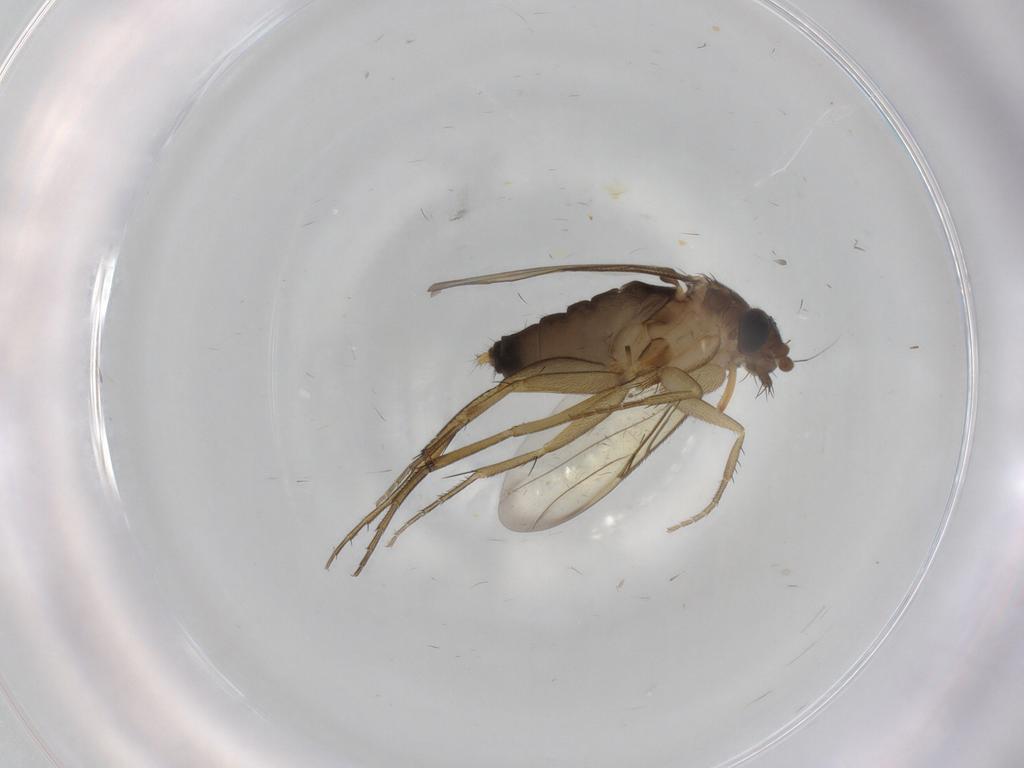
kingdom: Animalia
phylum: Arthropoda
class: Insecta
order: Diptera
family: Phoridae
